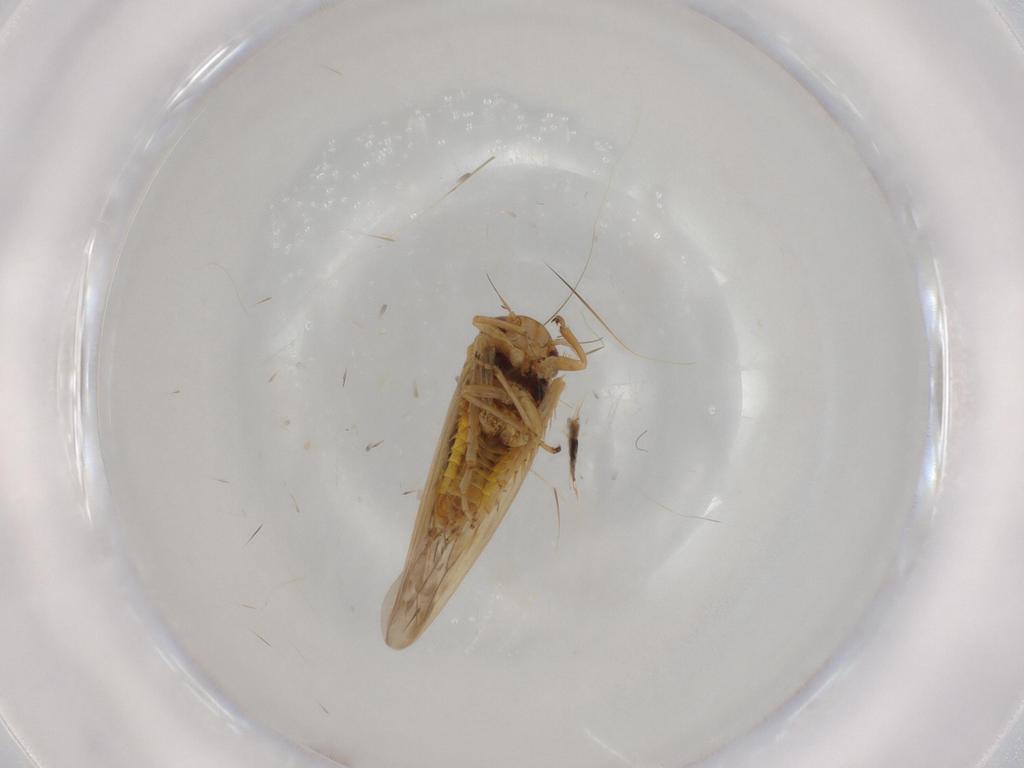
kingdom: Animalia
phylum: Arthropoda
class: Insecta
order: Hemiptera
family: Cicadellidae
